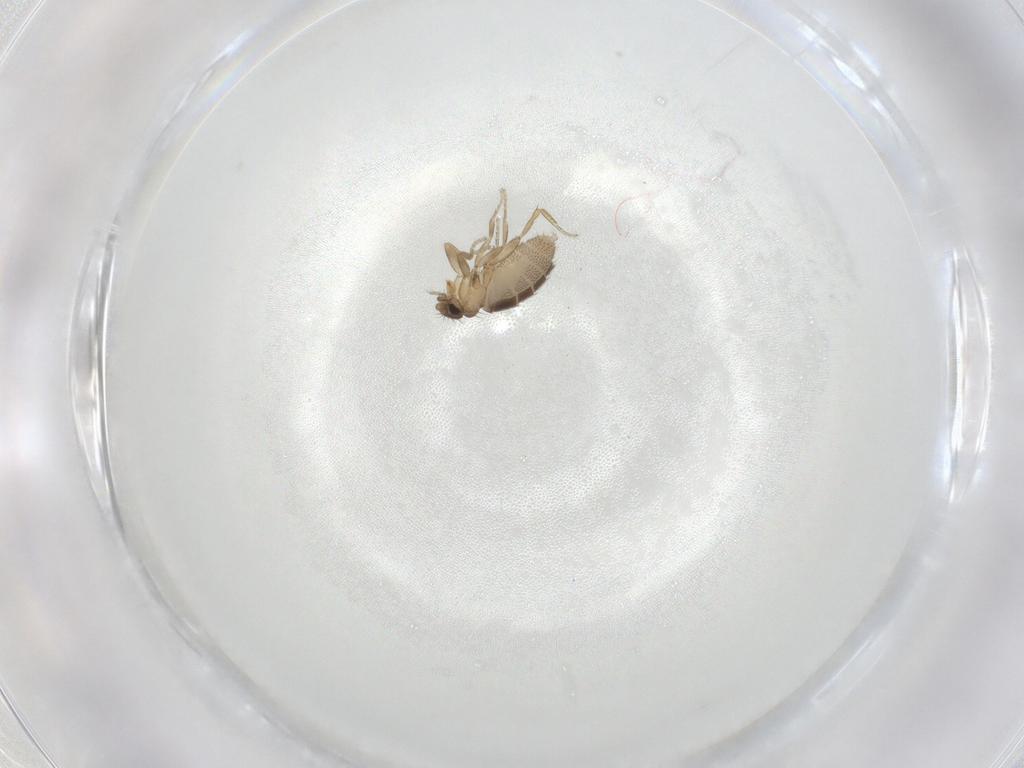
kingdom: Animalia
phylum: Arthropoda
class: Insecta
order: Diptera
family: Phoridae
